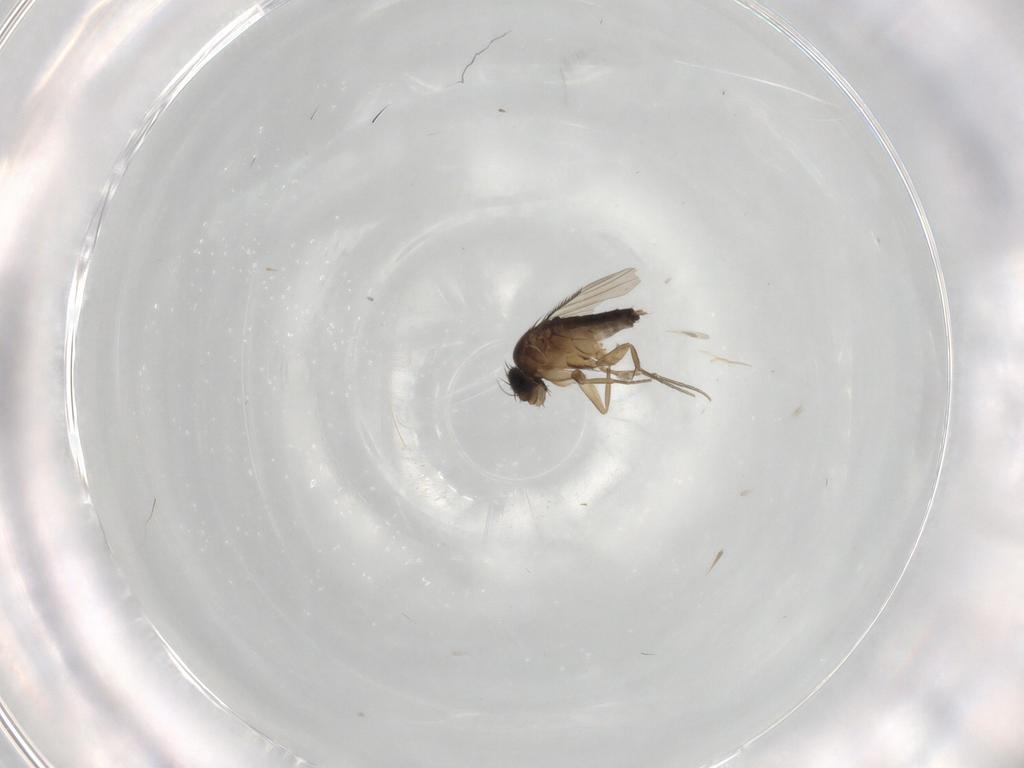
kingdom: Animalia
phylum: Arthropoda
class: Insecta
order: Diptera
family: Phoridae
